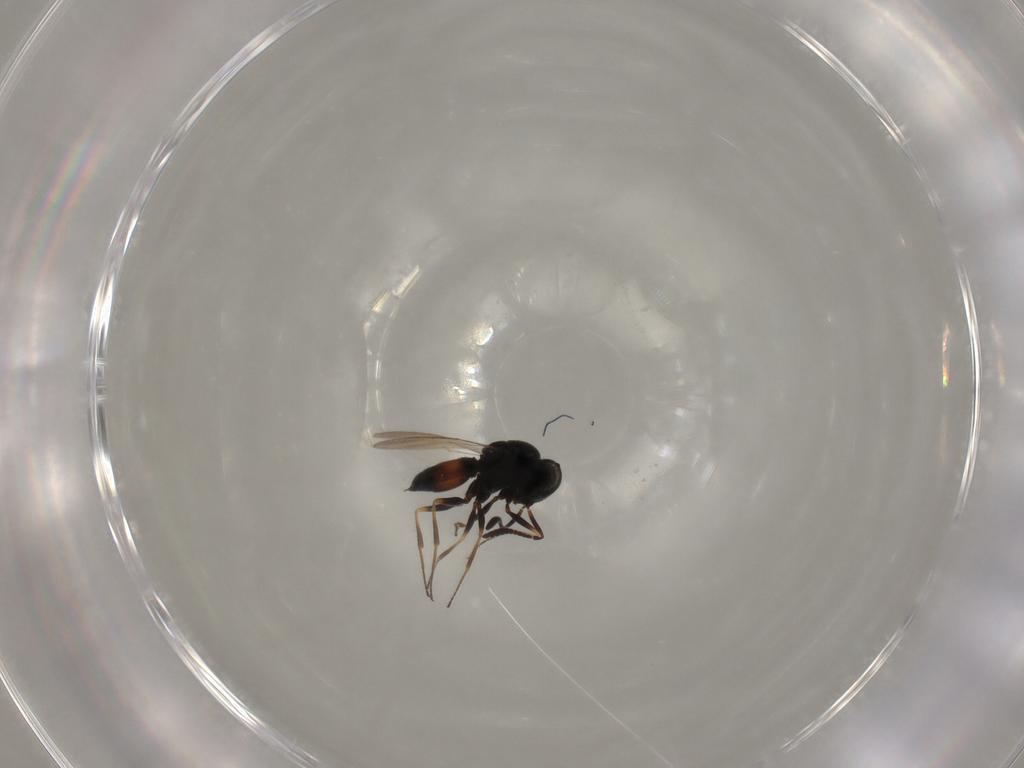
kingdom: Animalia
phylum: Arthropoda
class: Insecta
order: Hymenoptera
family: Scelionidae
